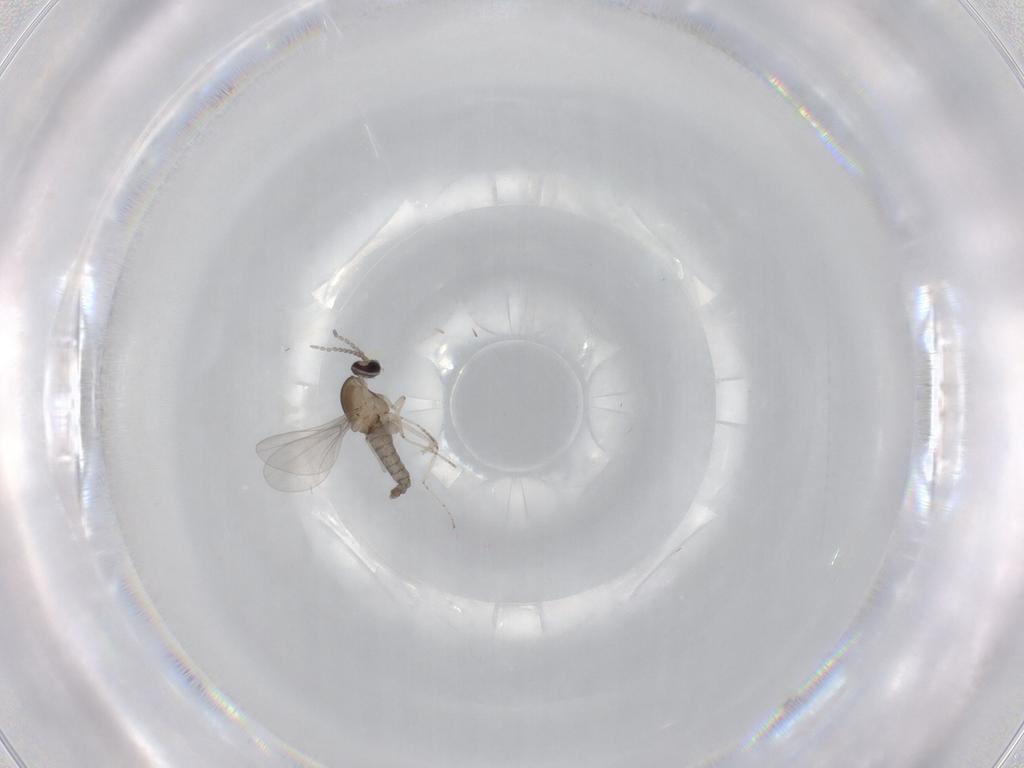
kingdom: Animalia
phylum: Arthropoda
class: Insecta
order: Diptera
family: Cecidomyiidae
